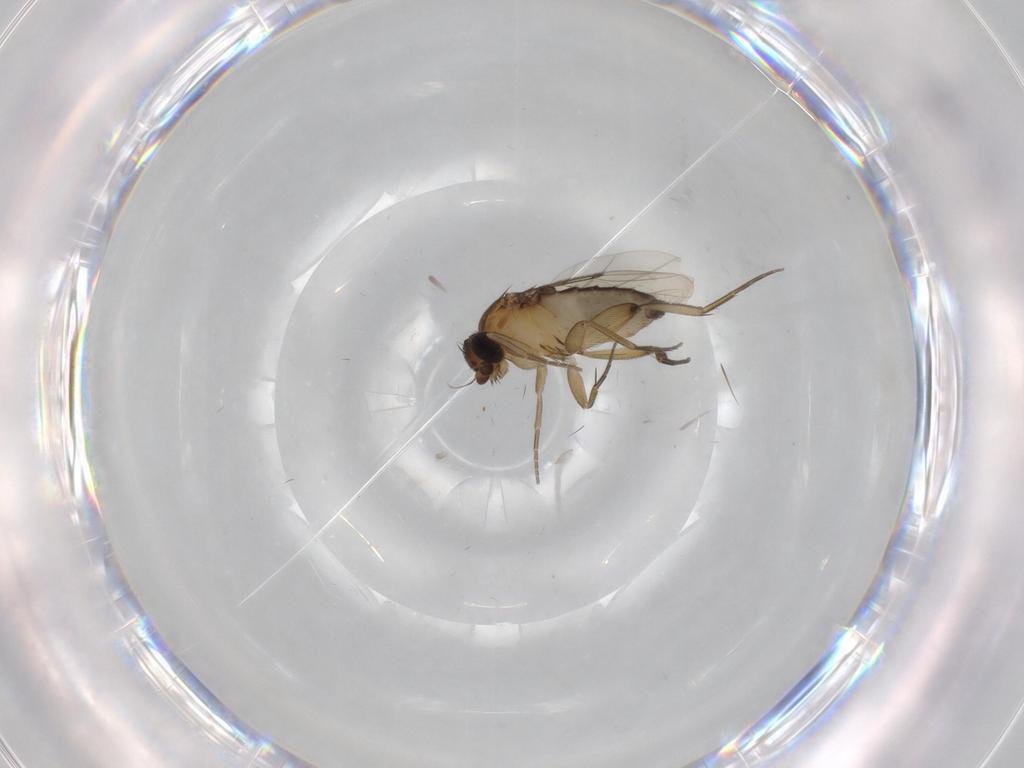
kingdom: Animalia
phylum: Arthropoda
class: Insecta
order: Diptera
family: Phoridae
